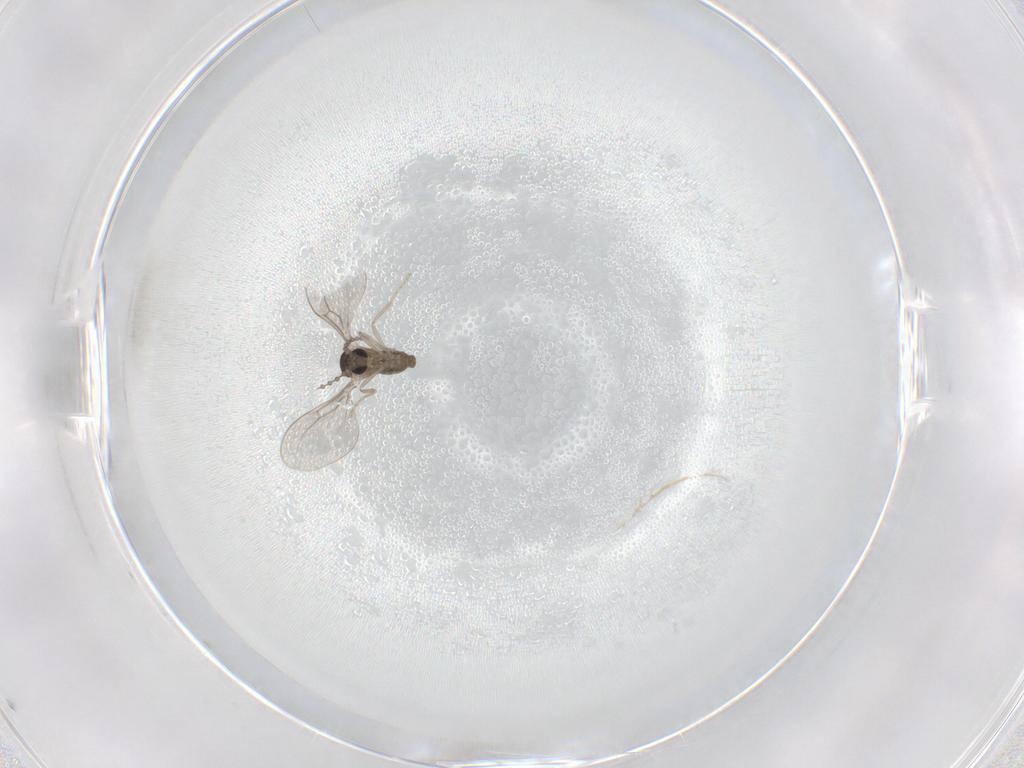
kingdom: Animalia
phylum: Arthropoda
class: Insecta
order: Diptera
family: Cecidomyiidae
